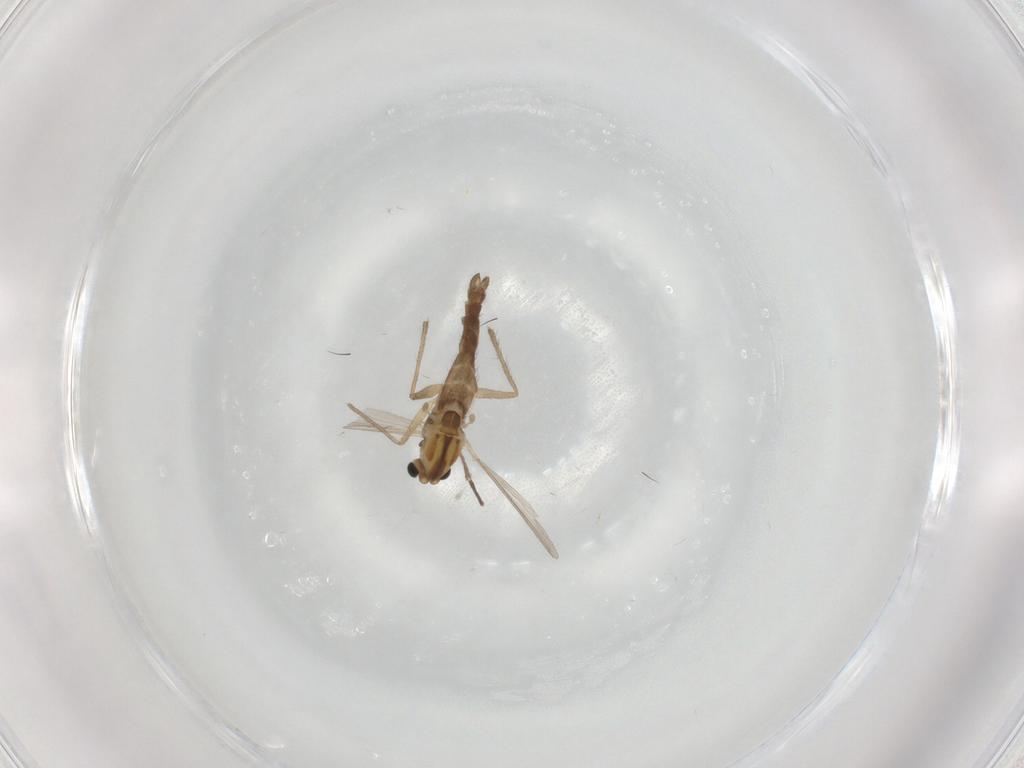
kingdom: Animalia
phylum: Arthropoda
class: Insecta
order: Diptera
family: Chironomidae
